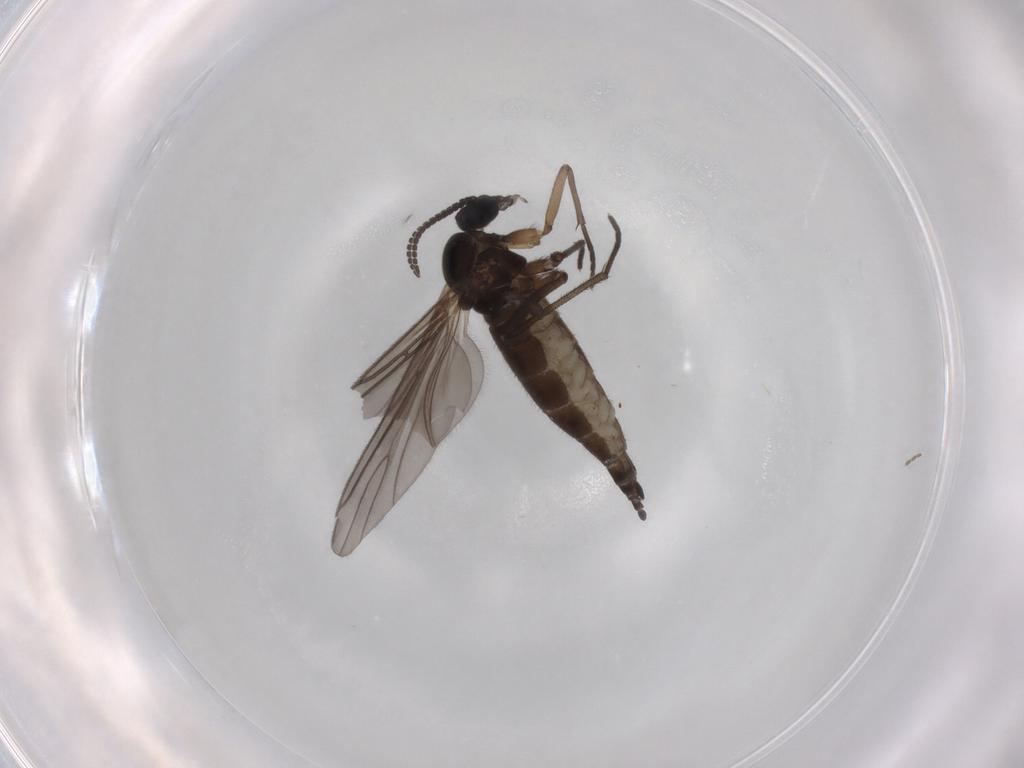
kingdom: Animalia
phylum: Arthropoda
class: Insecta
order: Diptera
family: Sciaridae
